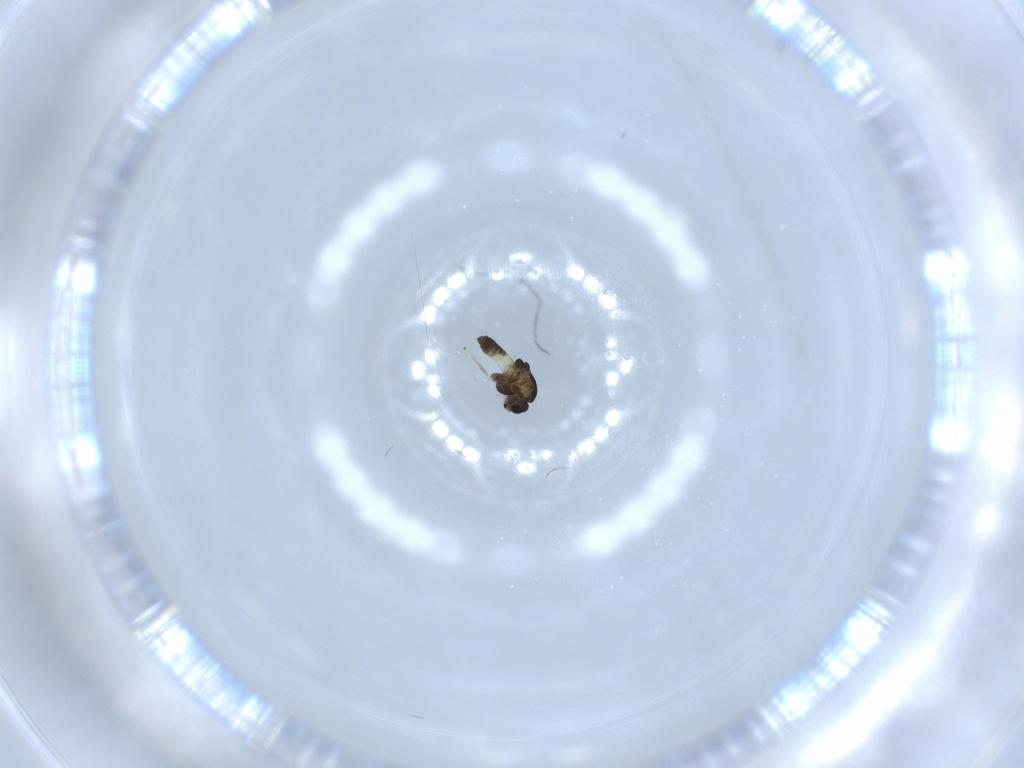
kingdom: Animalia
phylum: Arthropoda
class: Insecta
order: Diptera
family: Chironomidae
